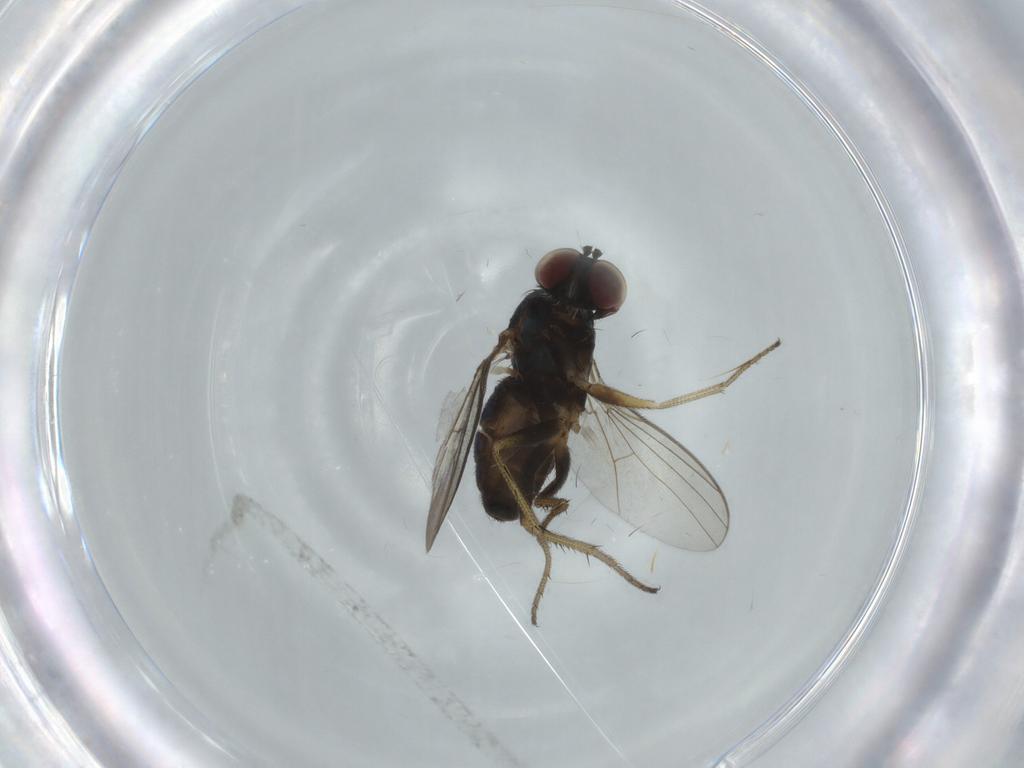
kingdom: Animalia
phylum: Arthropoda
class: Insecta
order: Diptera
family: Dolichopodidae
